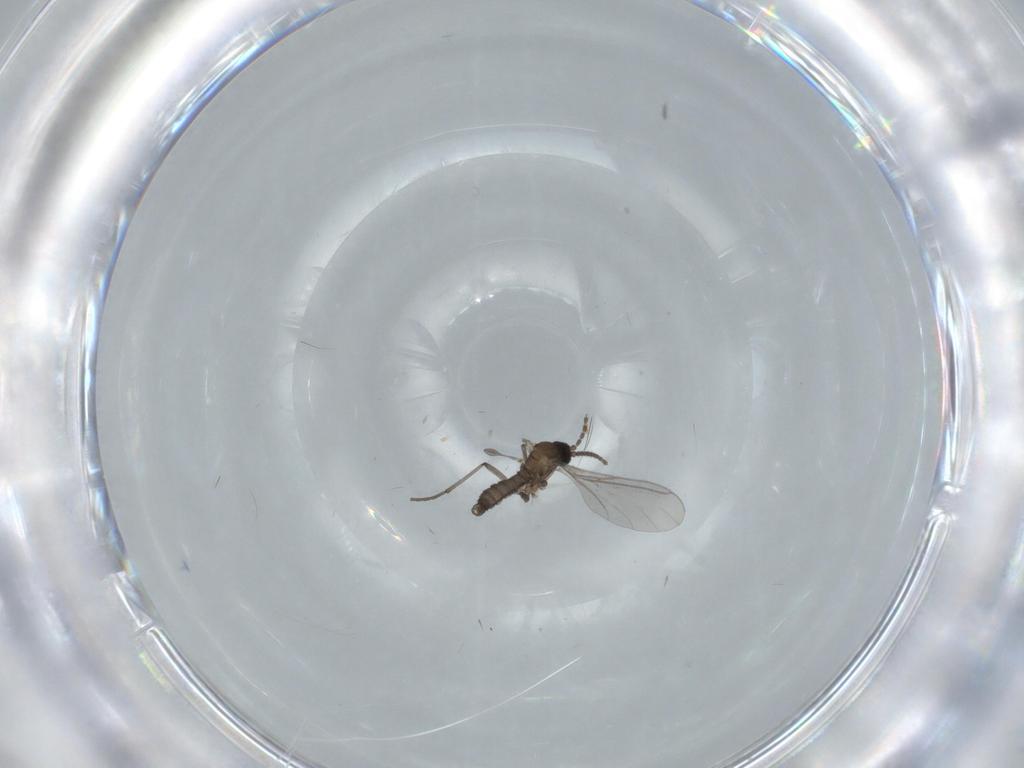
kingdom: Animalia
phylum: Arthropoda
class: Insecta
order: Diptera
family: Sciaridae
